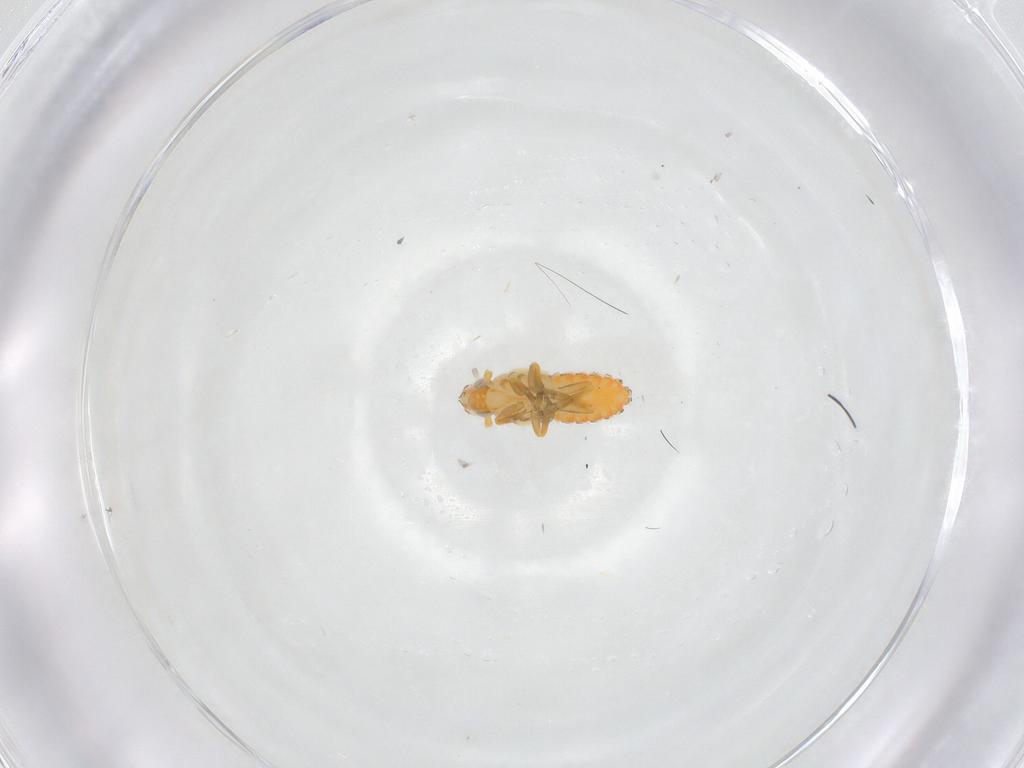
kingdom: Animalia
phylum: Arthropoda
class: Insecta
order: Hemiptera
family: Delphacidae
